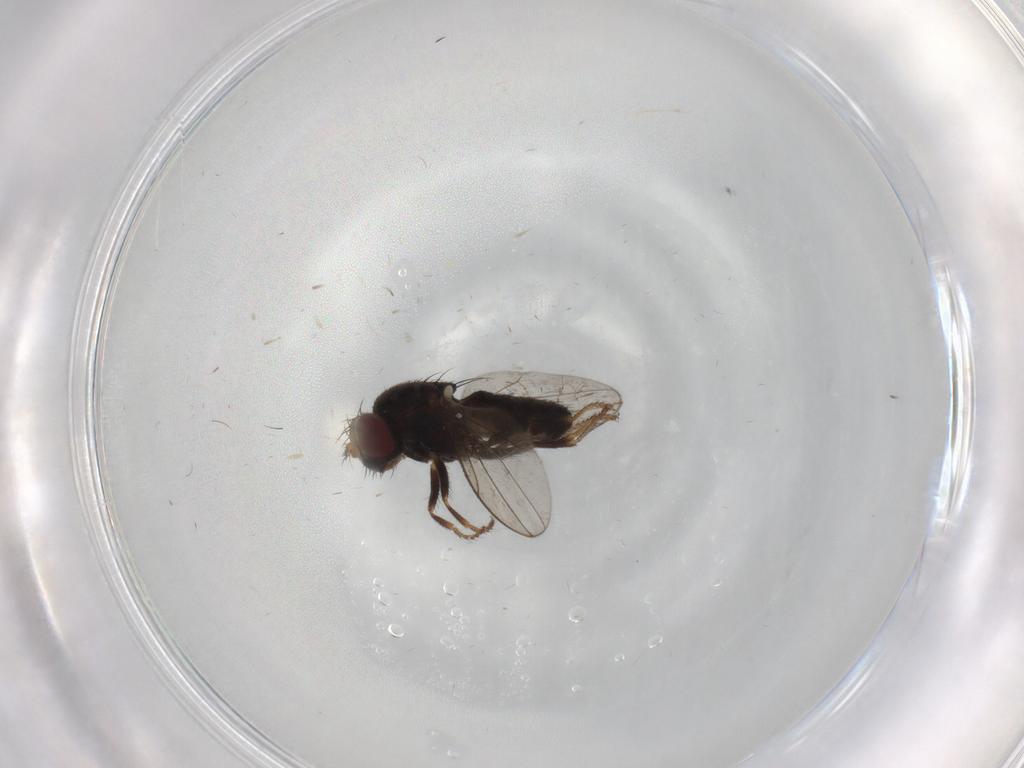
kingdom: Animalia
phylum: Arthropoda
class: Insecta
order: Diptera
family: Ephydridae
